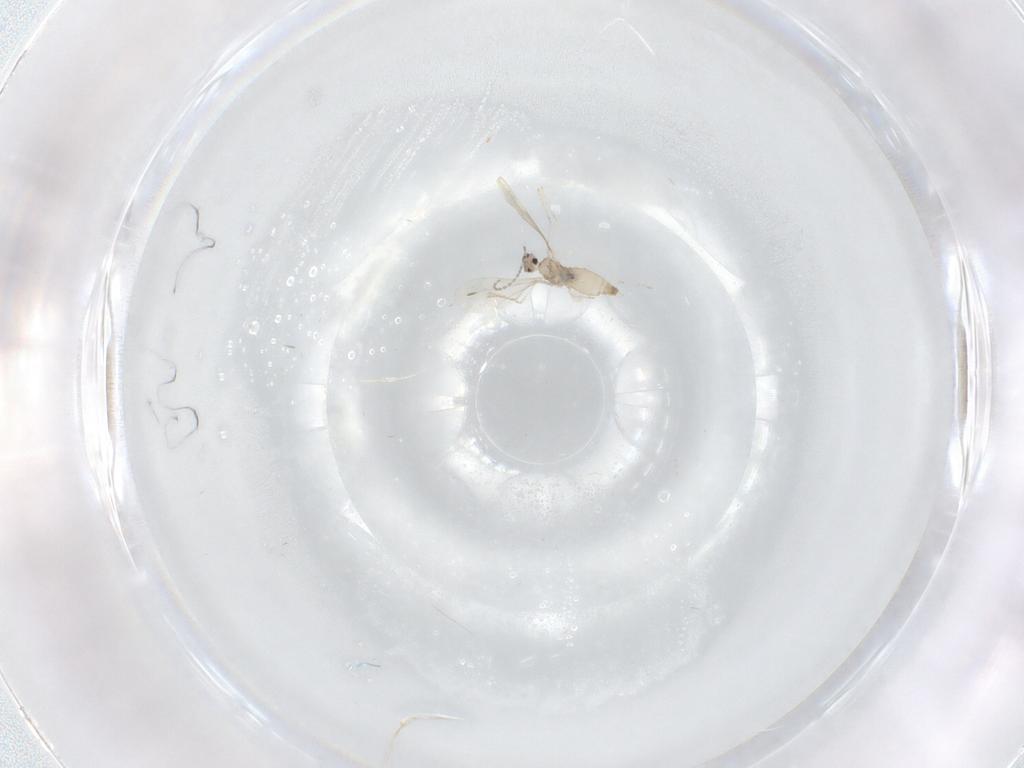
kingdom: Animalia
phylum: Arthropoda
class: Insecta
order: Diptera
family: Cecidomyiidae
